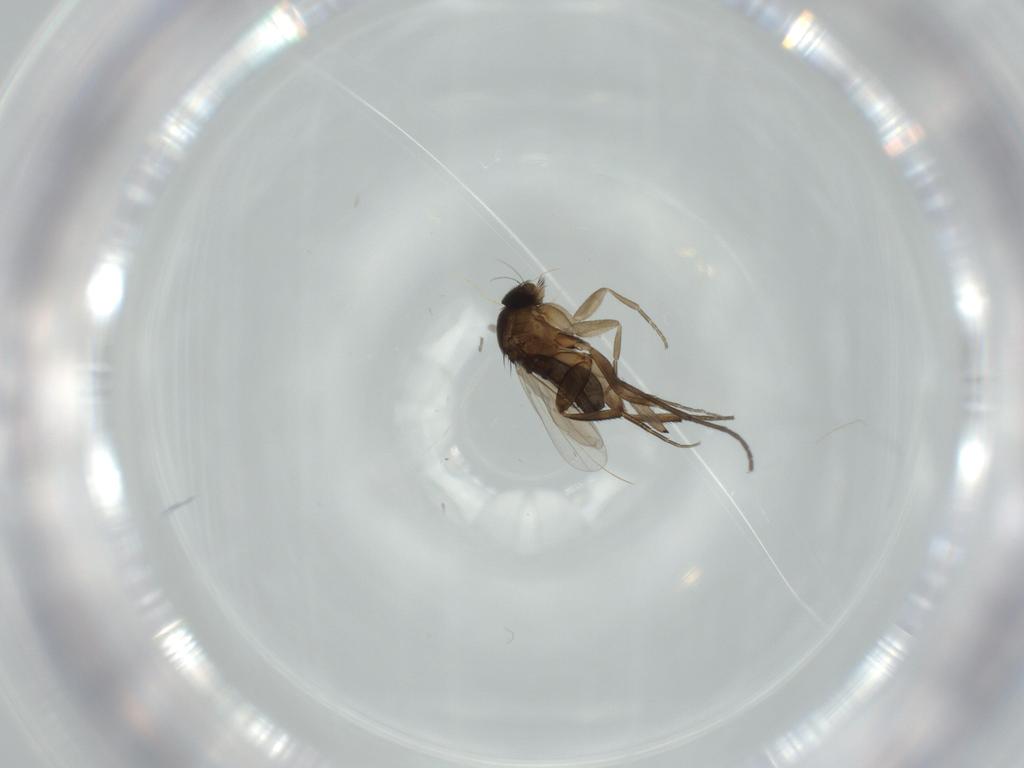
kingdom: Animalia
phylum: Arthropoda
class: Insecta
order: Diptera
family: Phoridae
